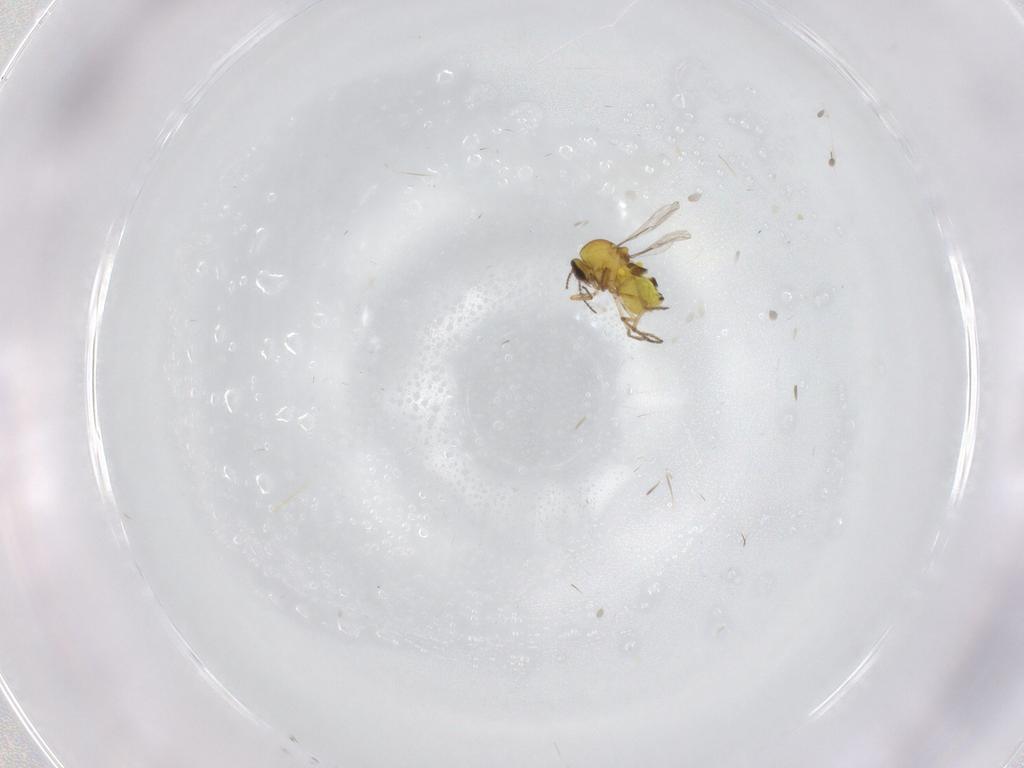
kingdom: Animalia
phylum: Arthropoda
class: Insecta
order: Diptera
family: Ceratopogonidae
